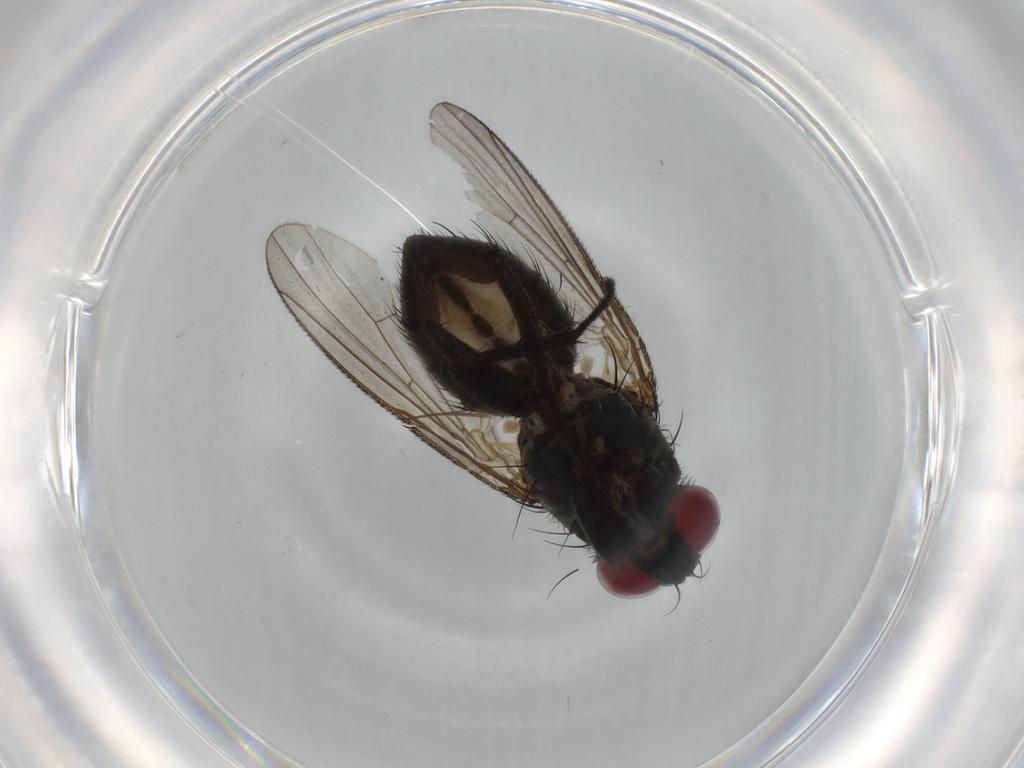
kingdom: Animalia
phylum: Arthropoda
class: Insecta
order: Diptera
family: Muscidae
